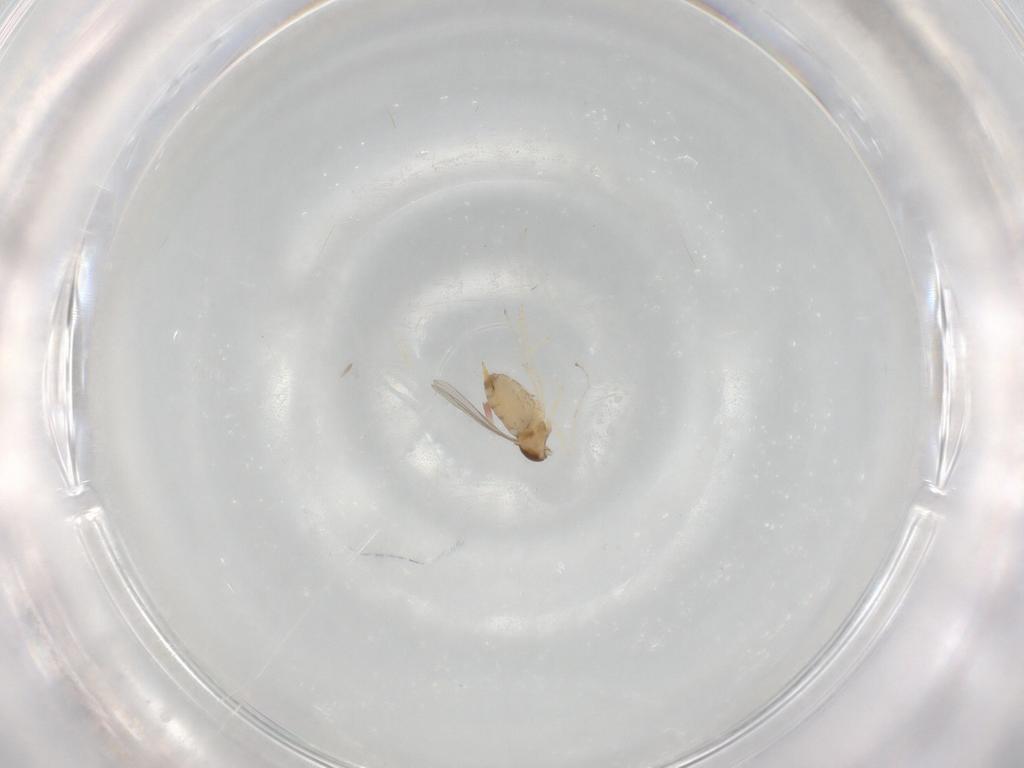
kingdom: Animalia
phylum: Arthropoda
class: Insecta
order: Diptera
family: Cecidomyiidae
